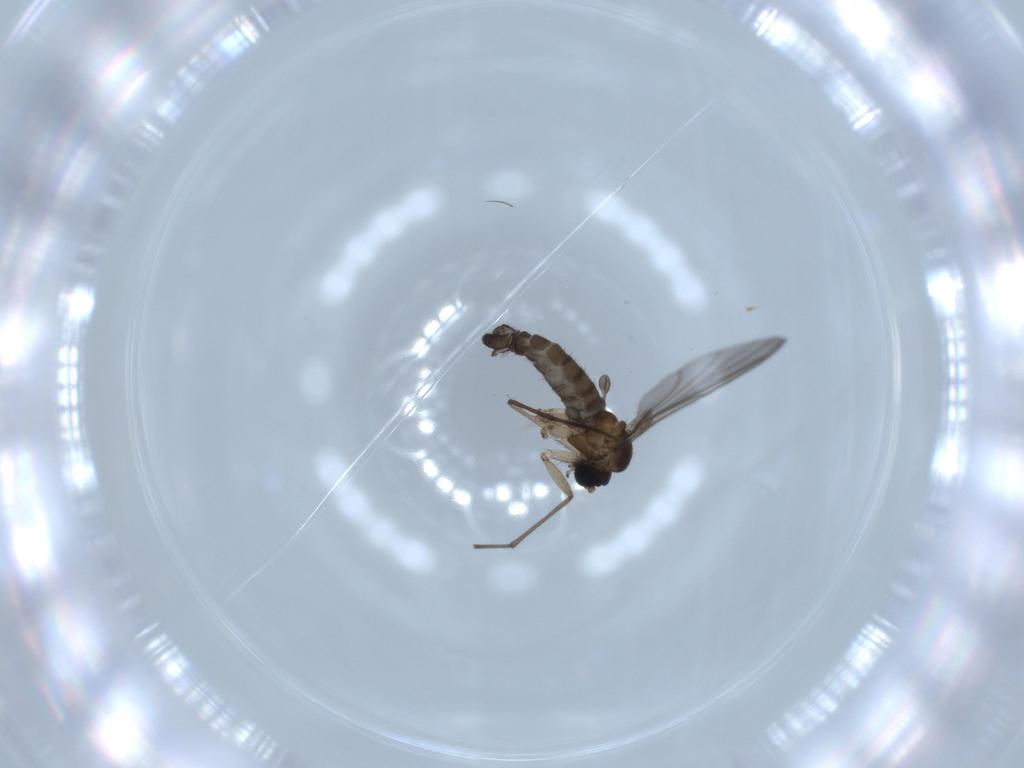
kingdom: Animalia
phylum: Arthropoda
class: Insecta
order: Diptera
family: Sciaridae
